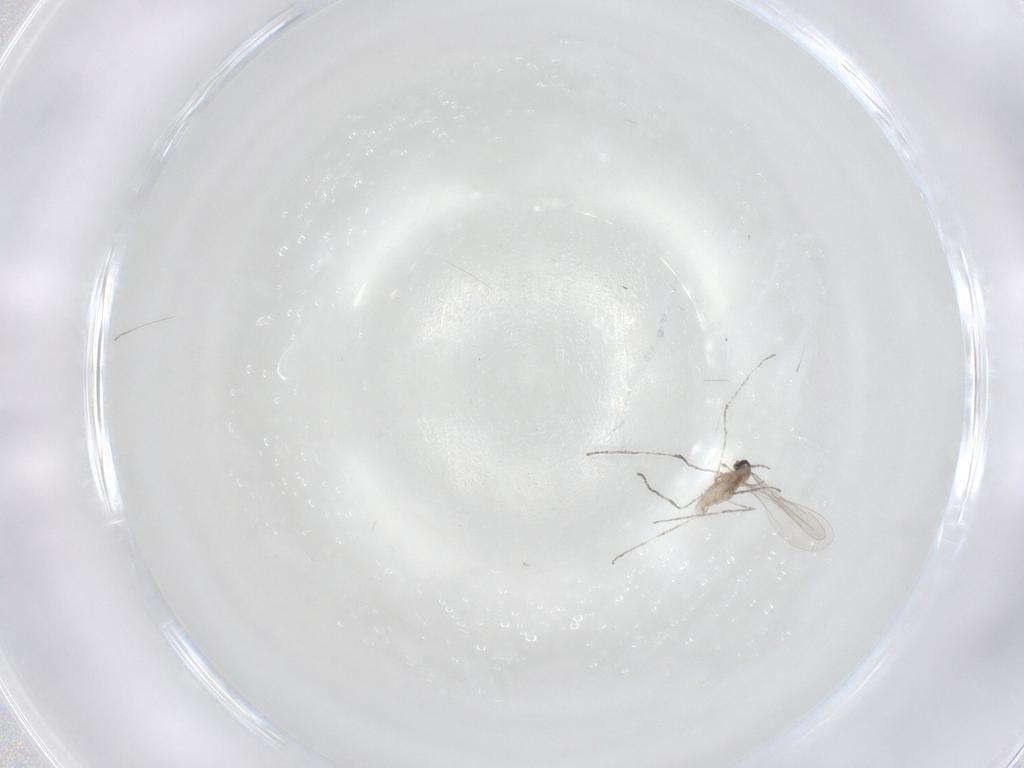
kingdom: Animalia
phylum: Arthropoda
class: Insecta
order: Diptera
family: Cecidomyiidae
